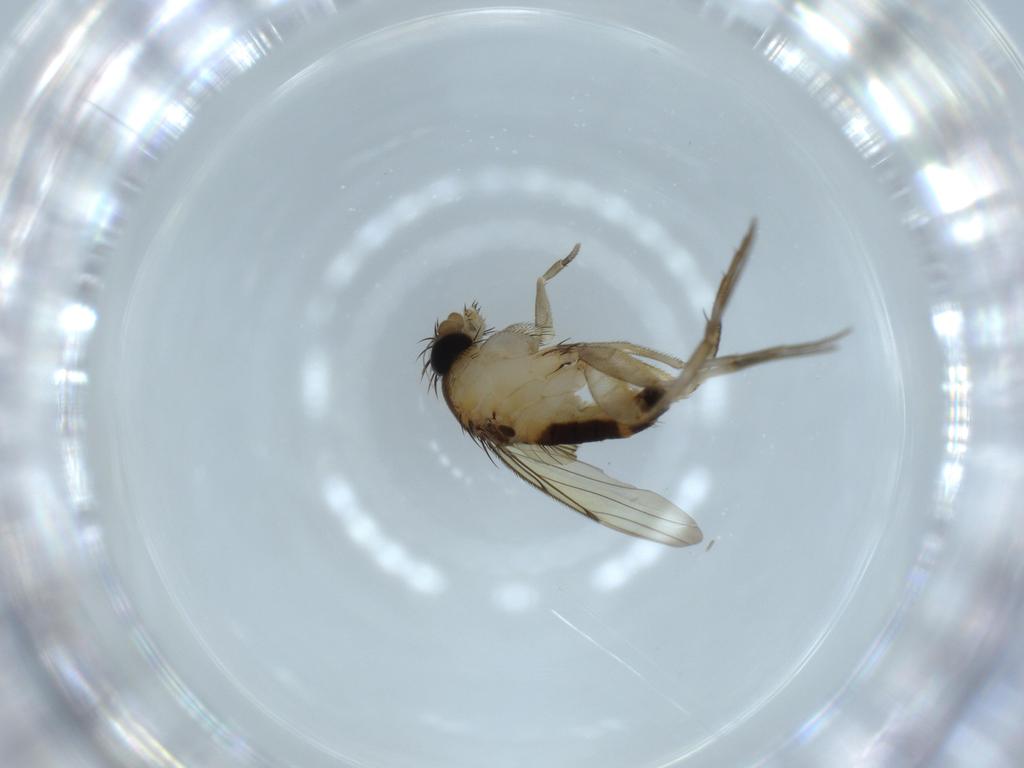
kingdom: Animalia
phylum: Arthropoda
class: Insecta
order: Diptera
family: Phoridae
